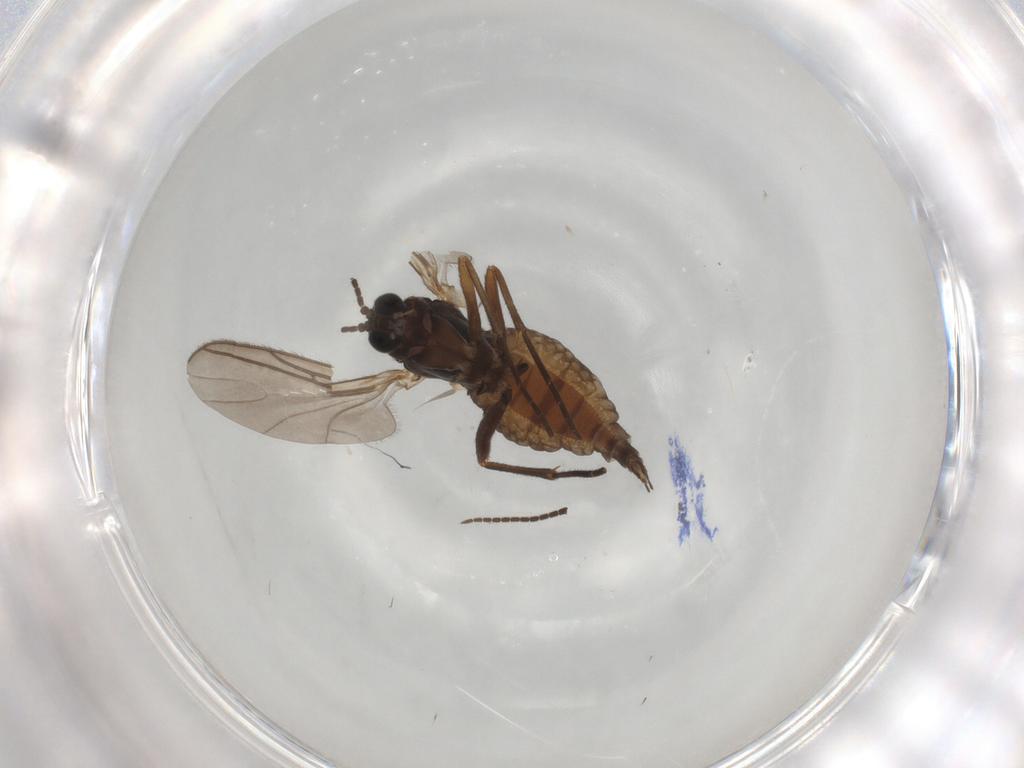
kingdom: Animalia
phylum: Arthropoda
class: Insecta
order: Diptera
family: Sciaridae
